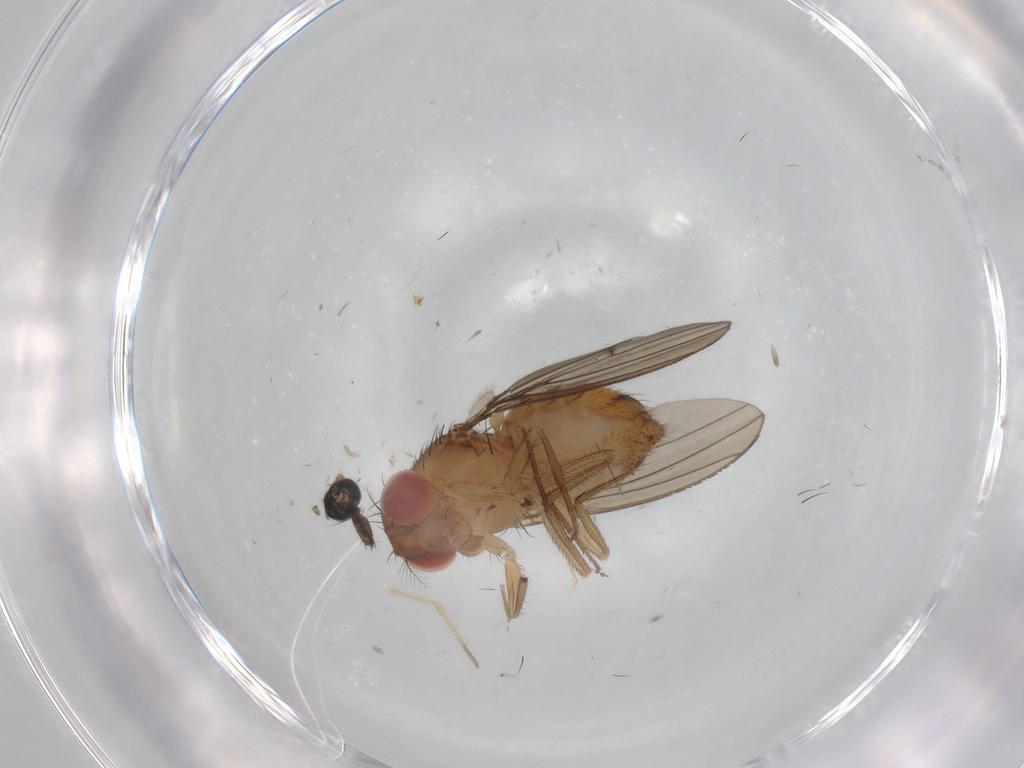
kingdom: Animalia
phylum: Arthropoda
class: Insecta
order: Diptera
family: Drosophilidae
